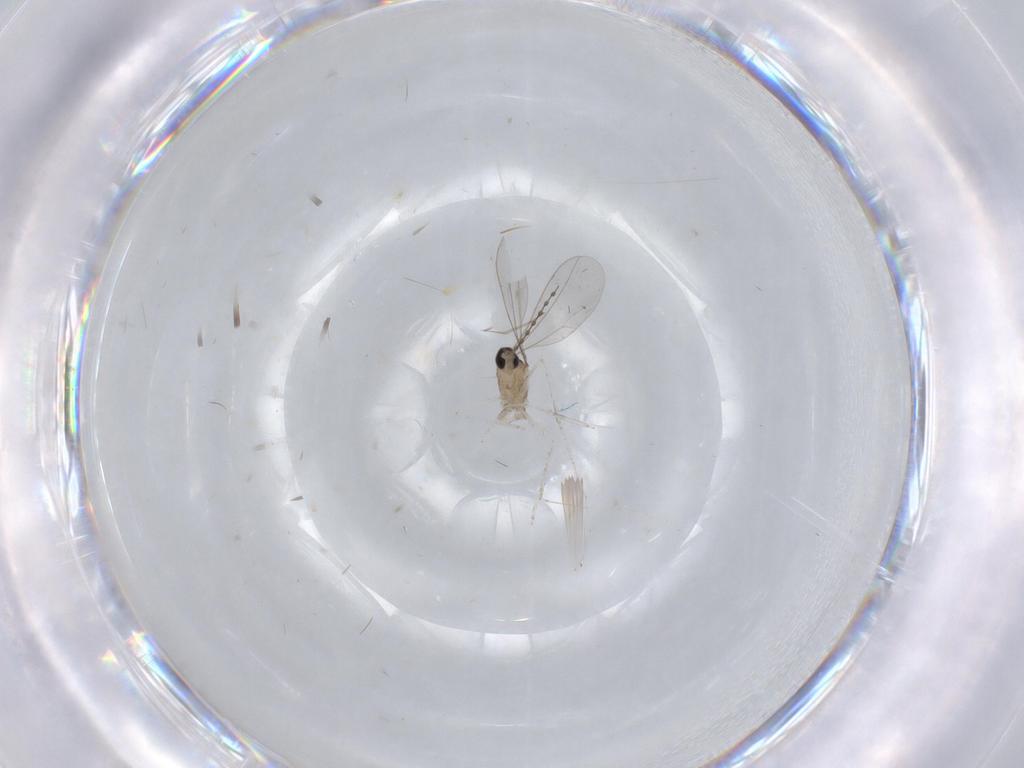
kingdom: Animalia
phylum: Arthropoda
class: Insecta
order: Diptera
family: Sciaridae
